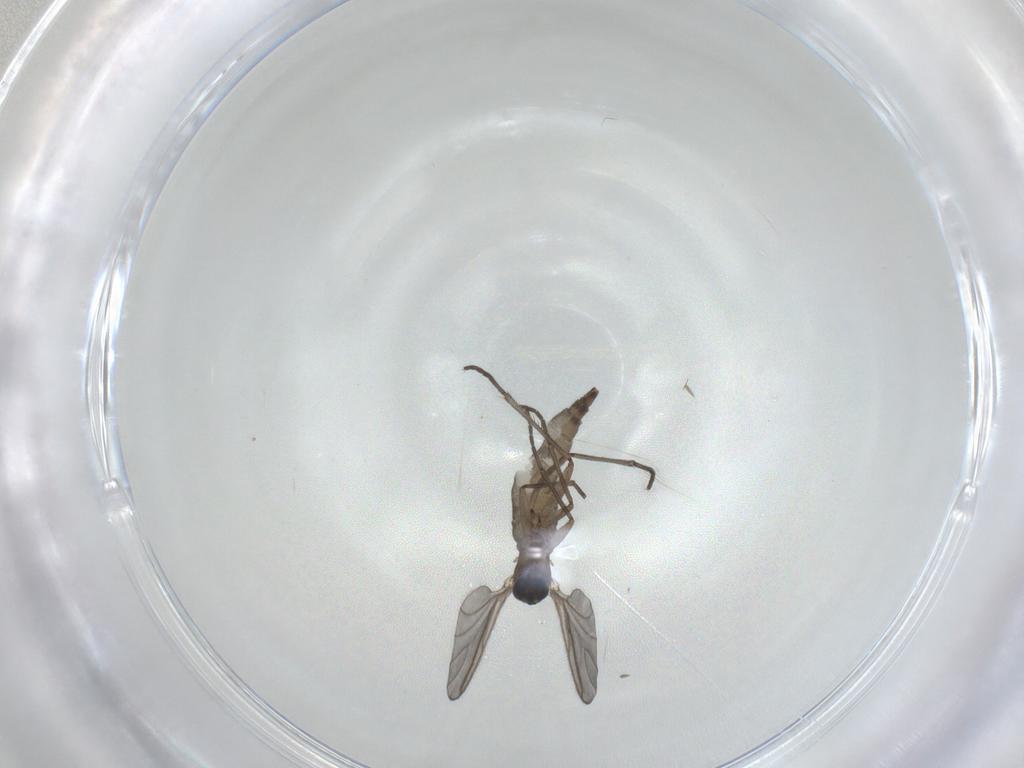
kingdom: Animalia
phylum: Arthropoda
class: Insecta
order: Diptera
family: Sciaridae
